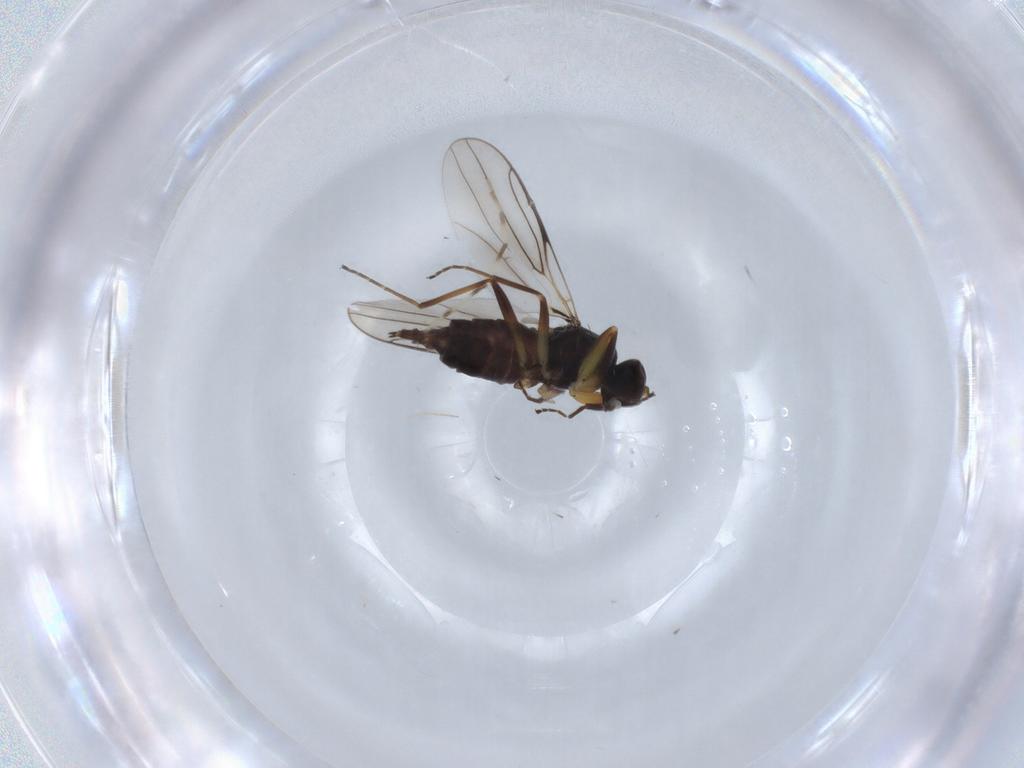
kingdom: Animalia
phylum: Arthropoda
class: Insecta
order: Diptera
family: Hybotidae
